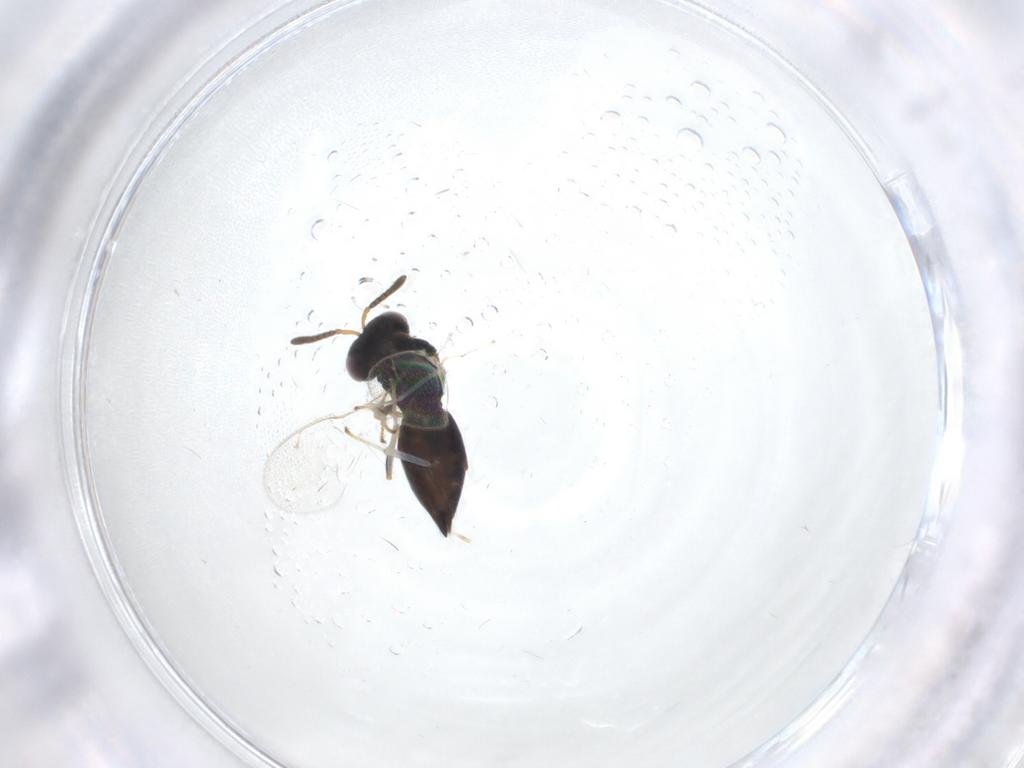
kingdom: Animalia
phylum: Arthropoda
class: Insecta
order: Hymenoptera
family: Pteromalidae
